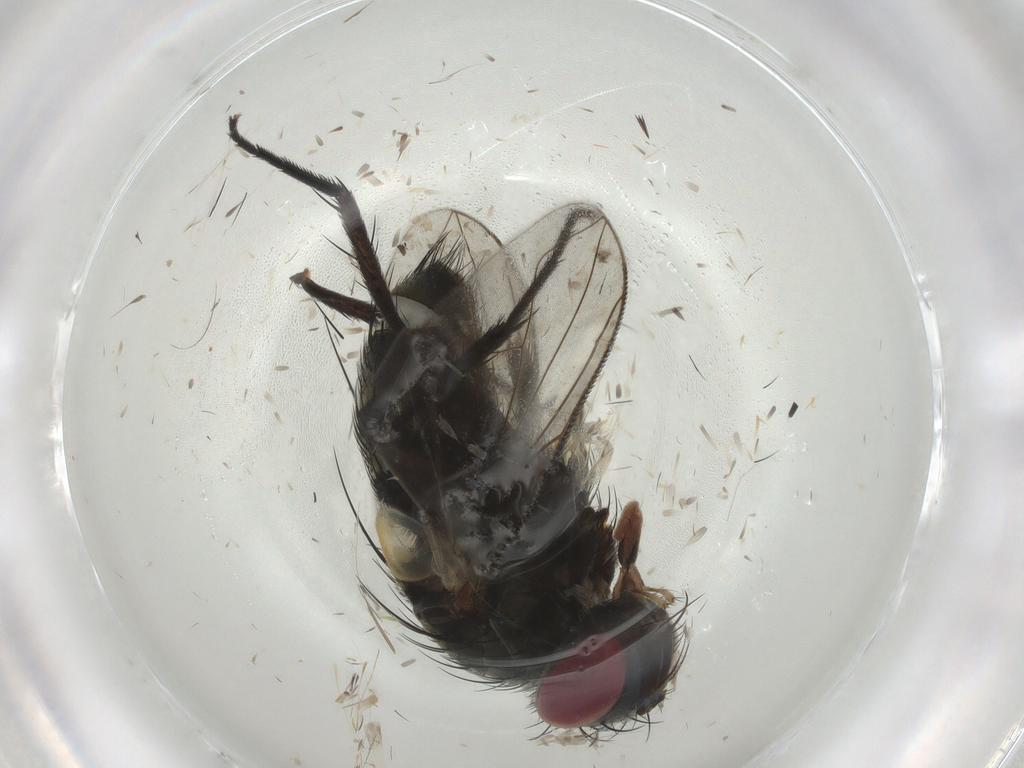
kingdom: Animalia
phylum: Arthropoda
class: Insecta
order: Diptera
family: Tachinidae
